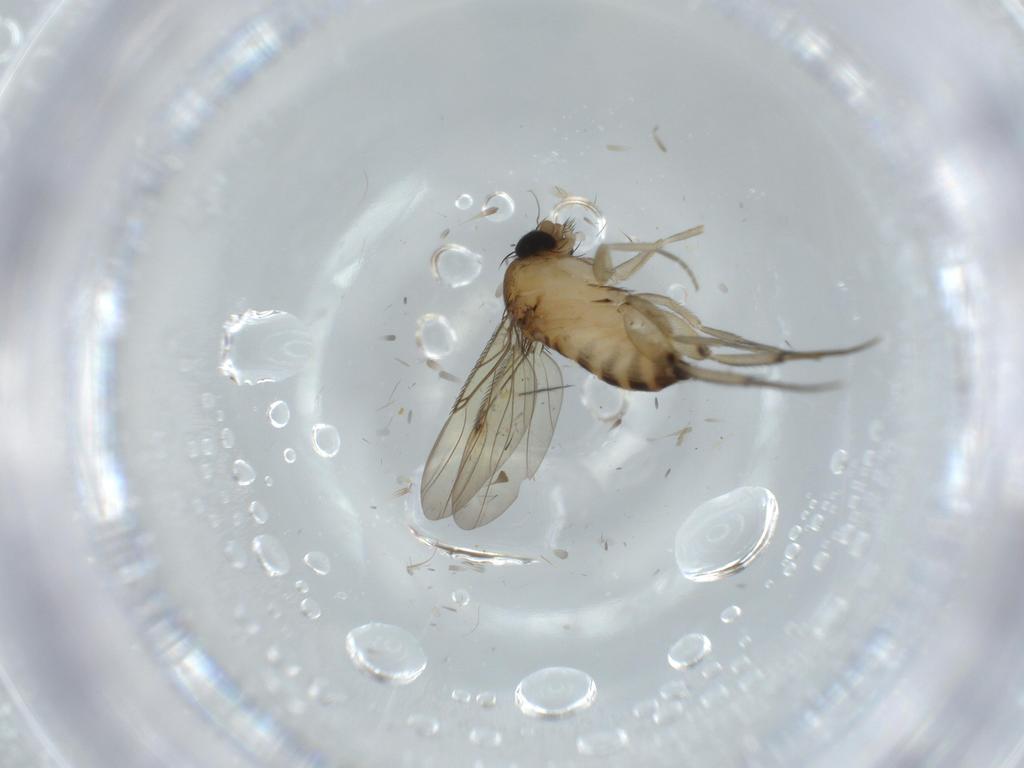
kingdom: Animalia
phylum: Arthropoda
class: Insecta
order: Diptera
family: Phoridae
